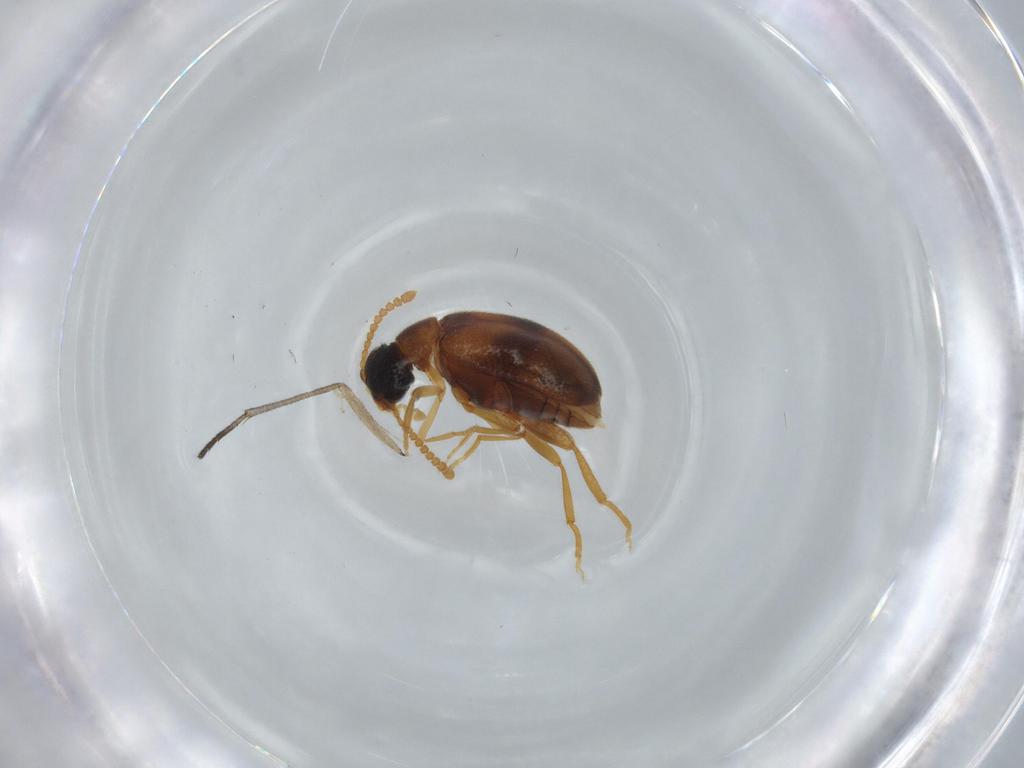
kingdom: Animalia
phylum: Arthropoda
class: Insecta
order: Coleoptera
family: Aderidae
